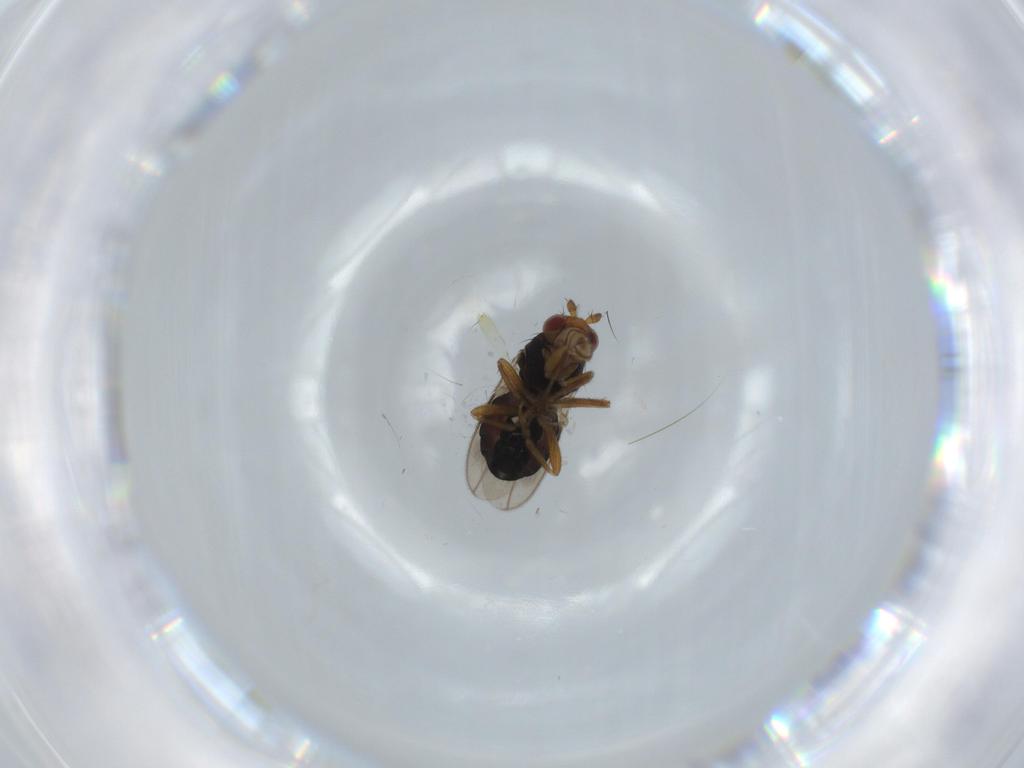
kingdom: Animalia
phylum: Arthropoda
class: Insecta
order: Diptera
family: Sphaeroceridae
